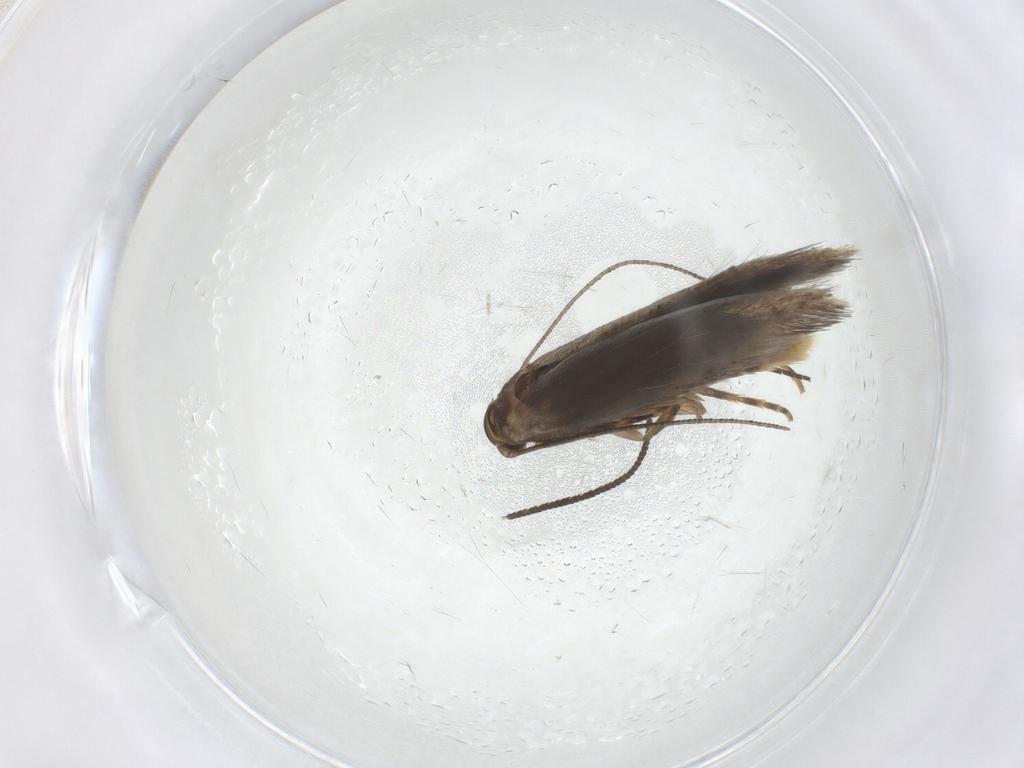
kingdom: Animalia
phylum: Arthropoda
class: Insecta
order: Lepidoptera
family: Elachistidae
